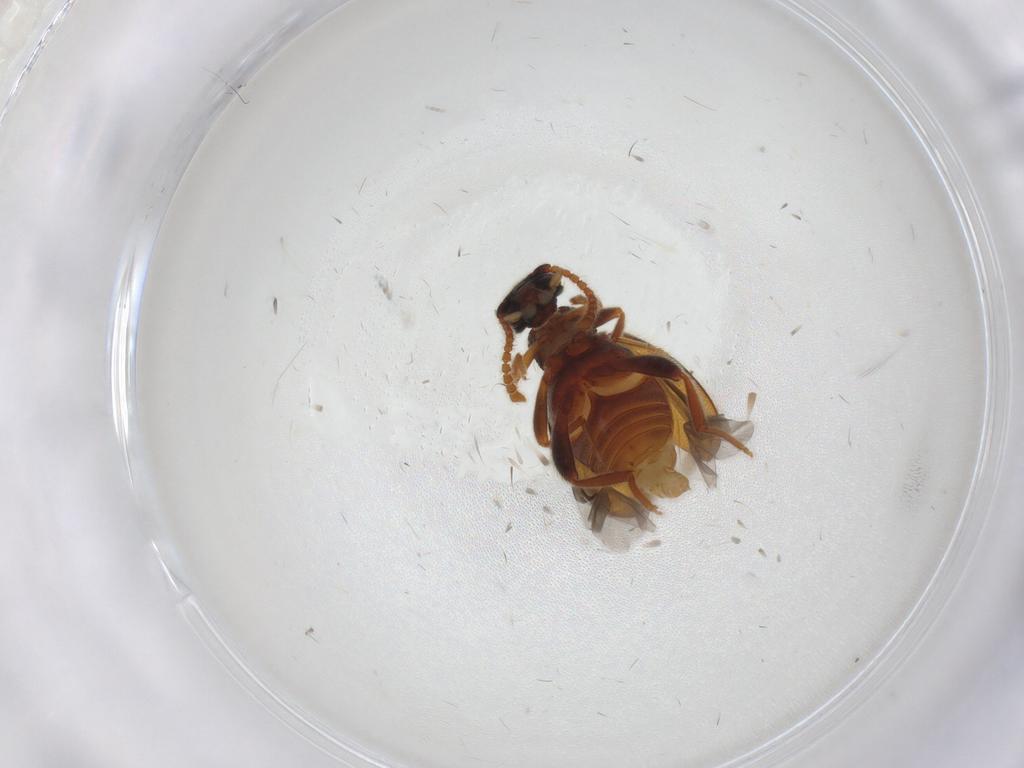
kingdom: Animalia
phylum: Arthropoda
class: Insecta
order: Coleoptera
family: Aderidae
